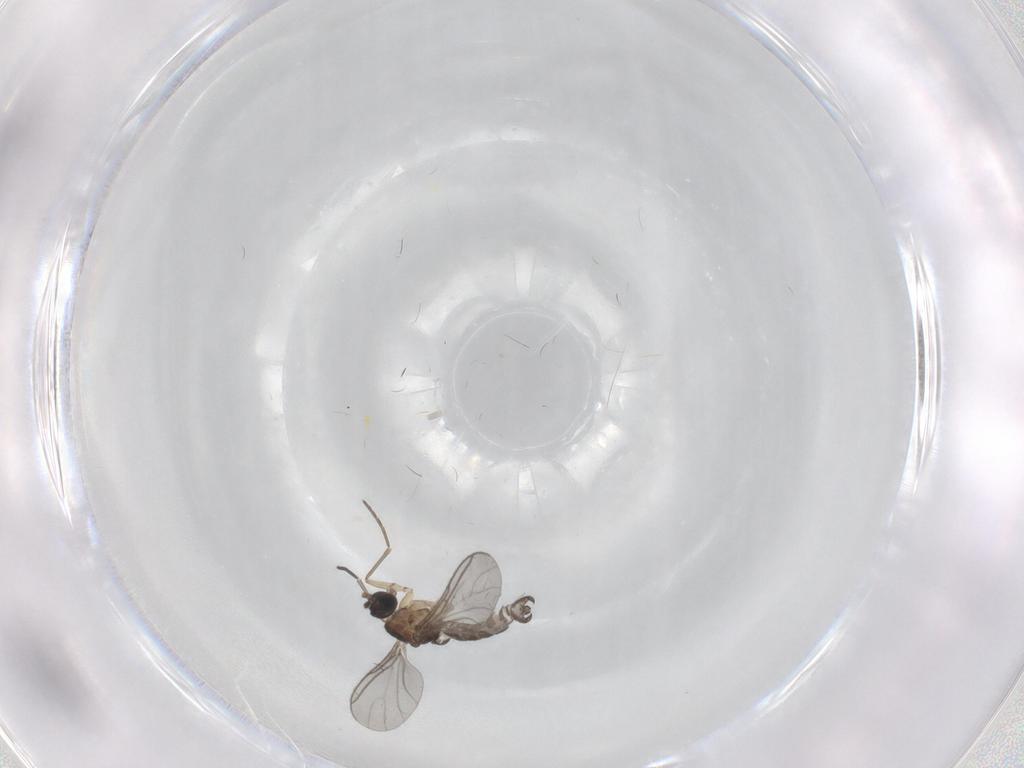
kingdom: Animalia
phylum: Arthropoda
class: Insecta
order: Diptera
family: Sciaridae
